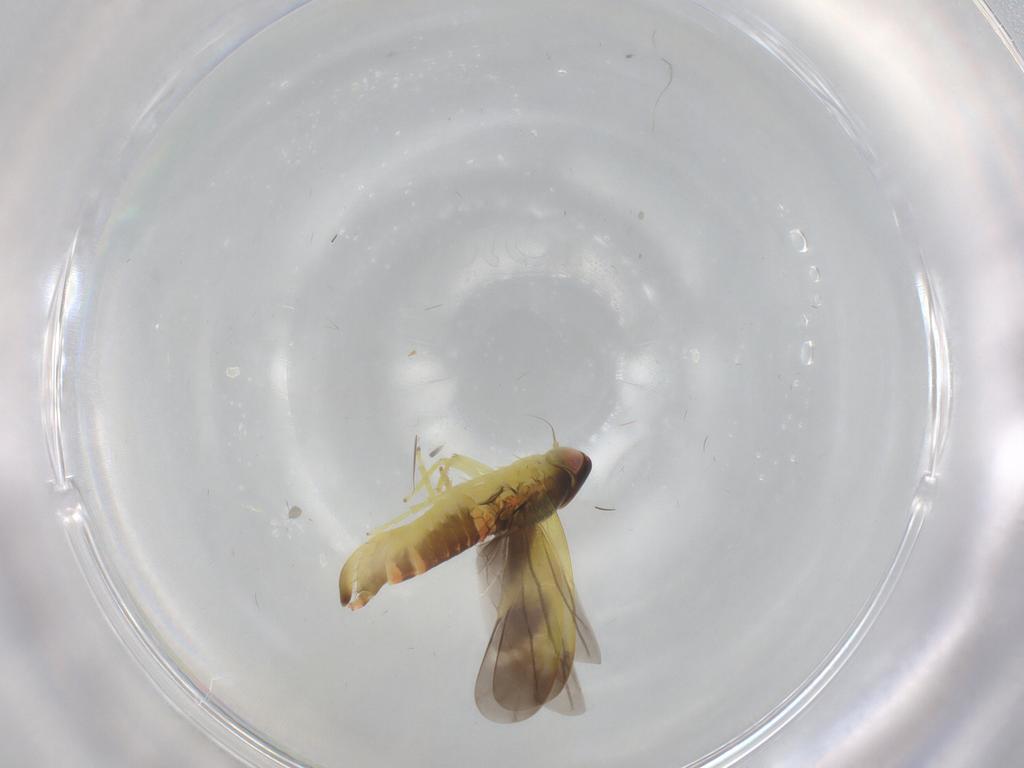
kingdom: Animalia
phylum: Arthropoda
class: Insecta
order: Hemiptera
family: Cicadellidae
